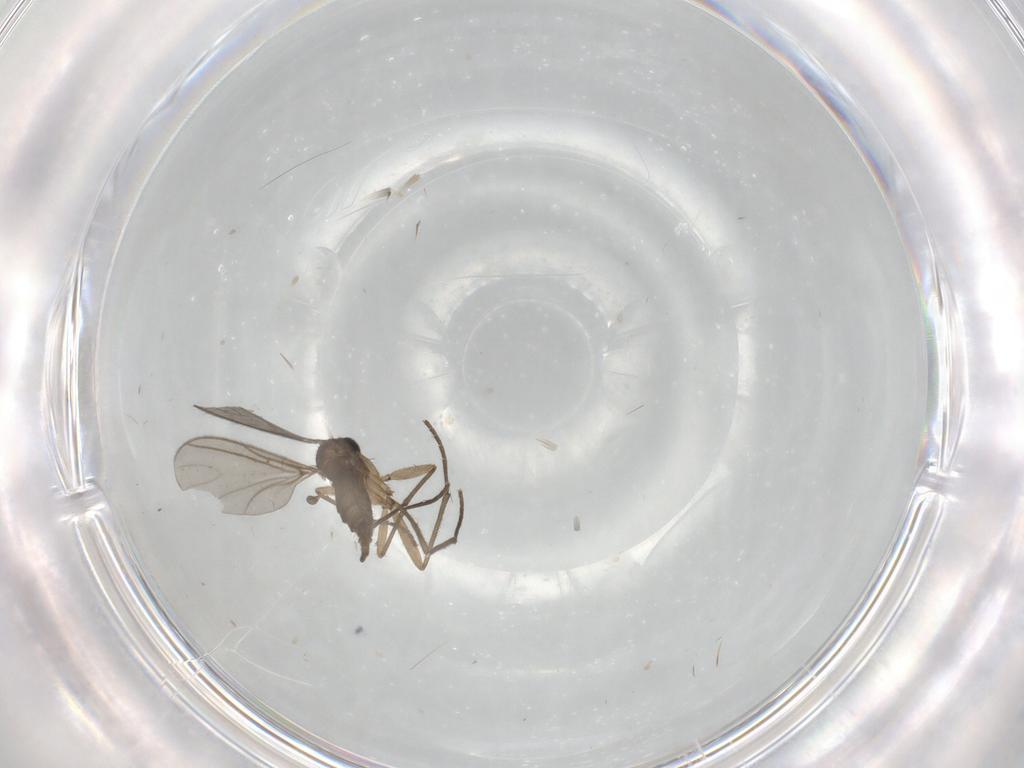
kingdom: Animalia
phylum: Arthropoda
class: Insecta
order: Diptera
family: Clusiidae
